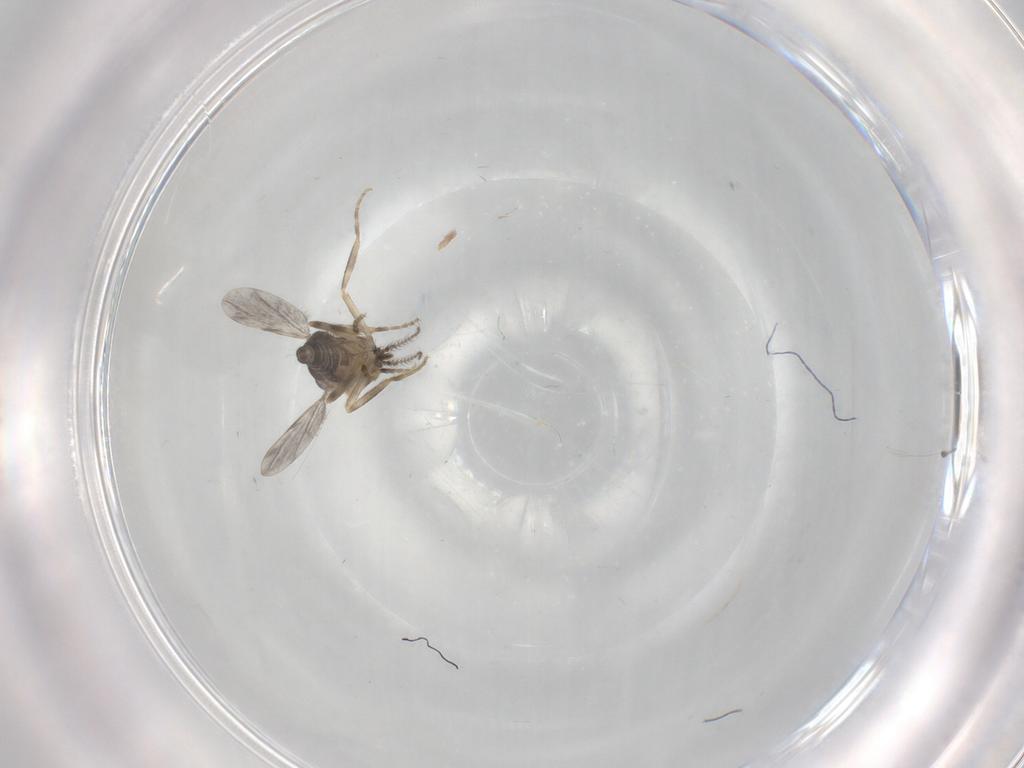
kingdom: Animalia
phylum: Arthropoda
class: Insecta
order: Diptera
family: Ceratopogonidae
